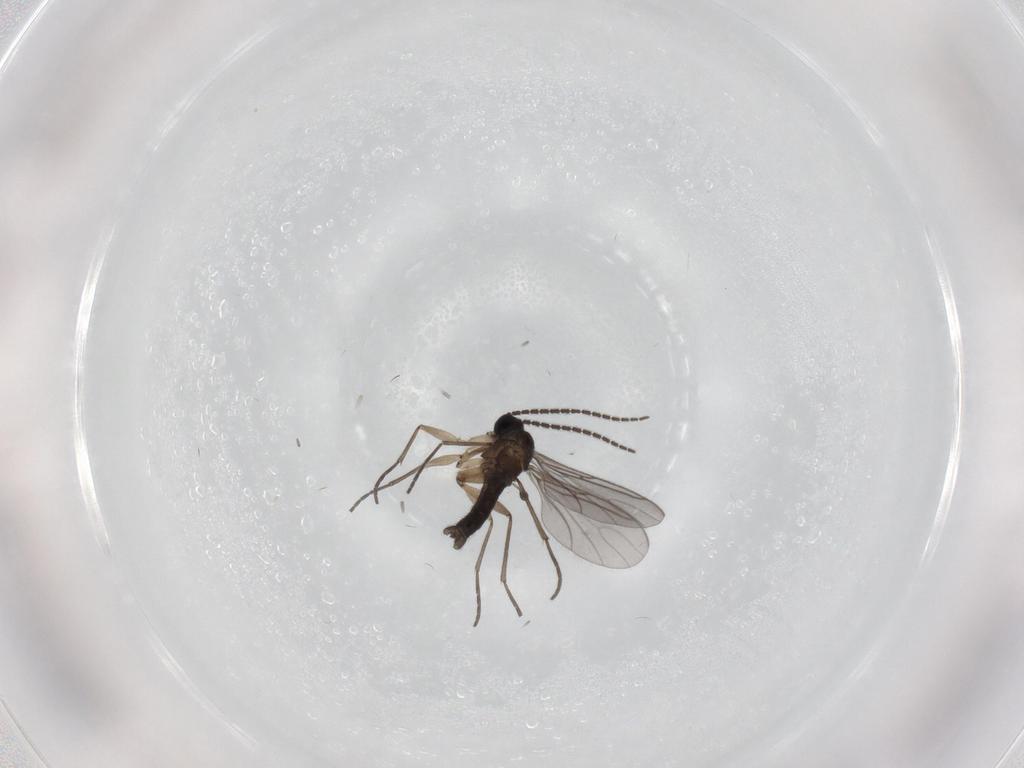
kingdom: Animalia
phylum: Arthropoda
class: Insecta
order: Diptera
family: Sciaridae
